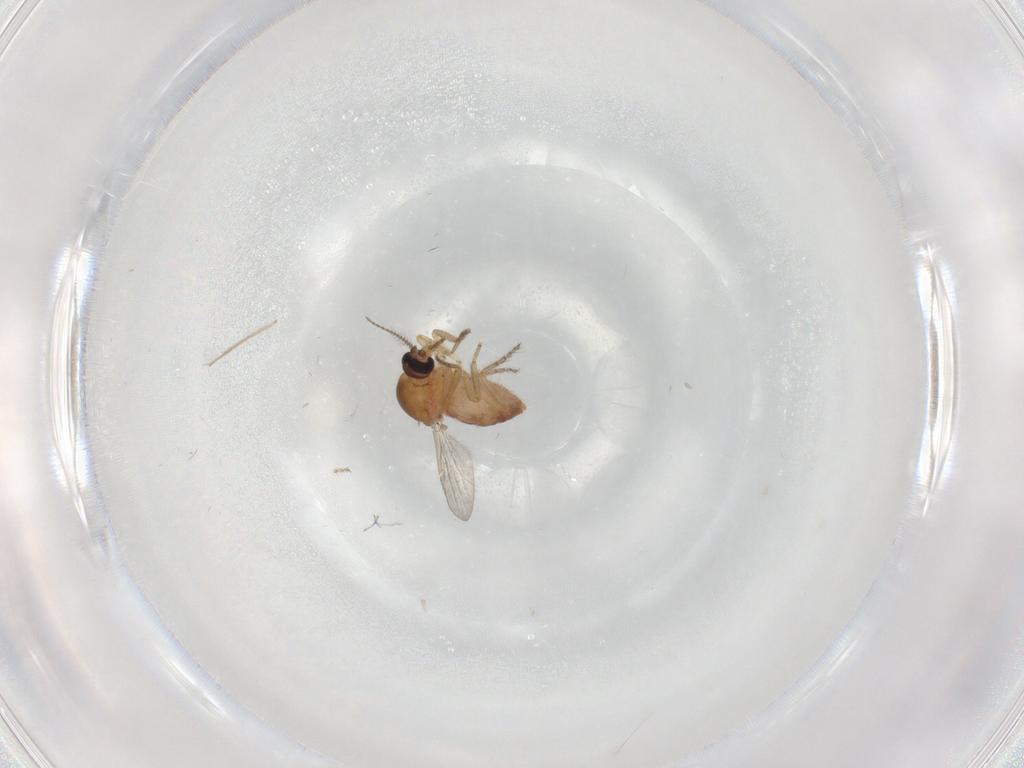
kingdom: Animalia
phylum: Arthropoda
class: Insecta
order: Diptera
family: Ceratopogonidae
